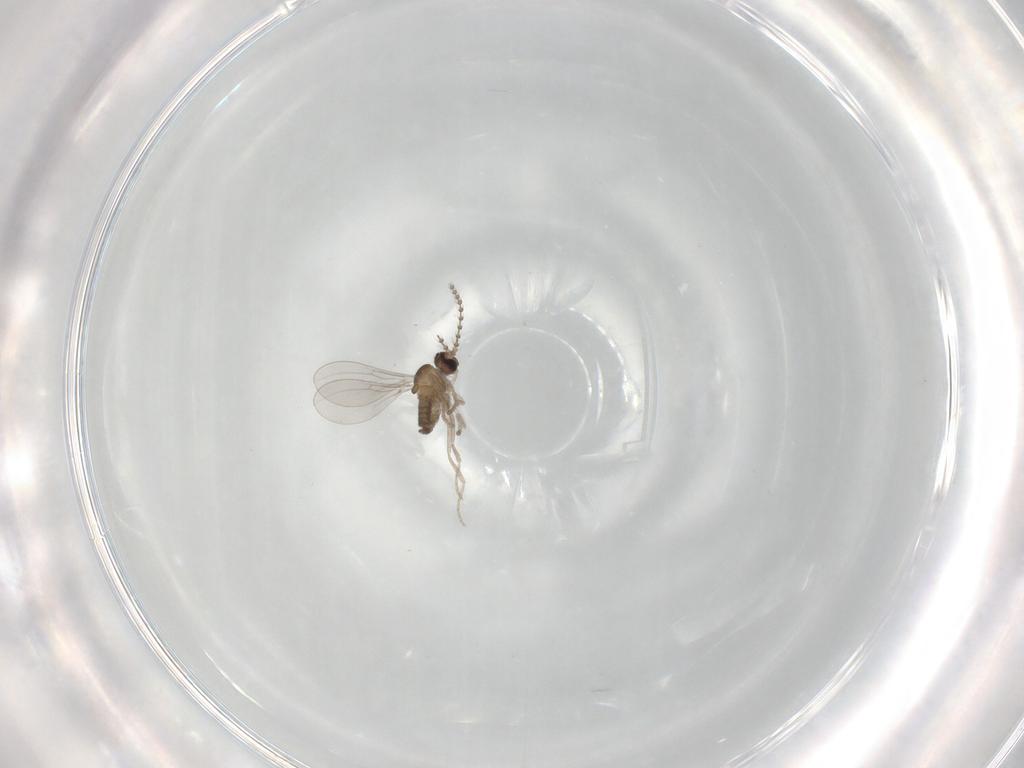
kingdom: Animalia
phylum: Arthropoda
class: Insecta
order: Diptera
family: Cecidomyiidae
